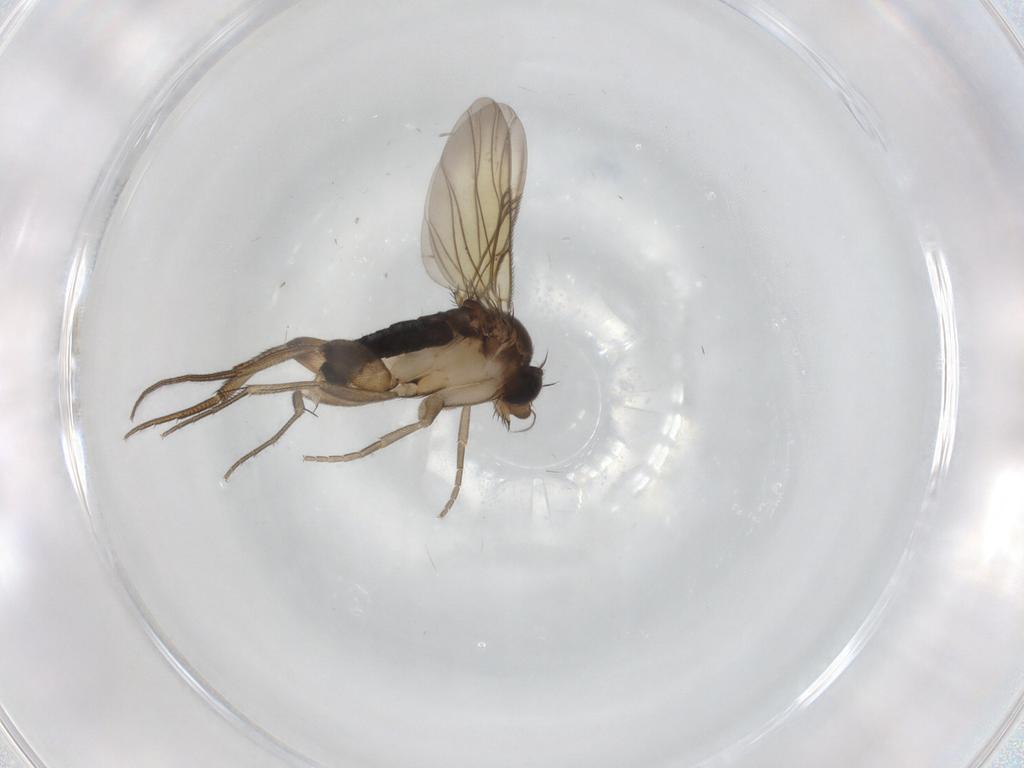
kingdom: Animalia
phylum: Arthropoda
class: Insecta
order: Diptera
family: Phoridae
